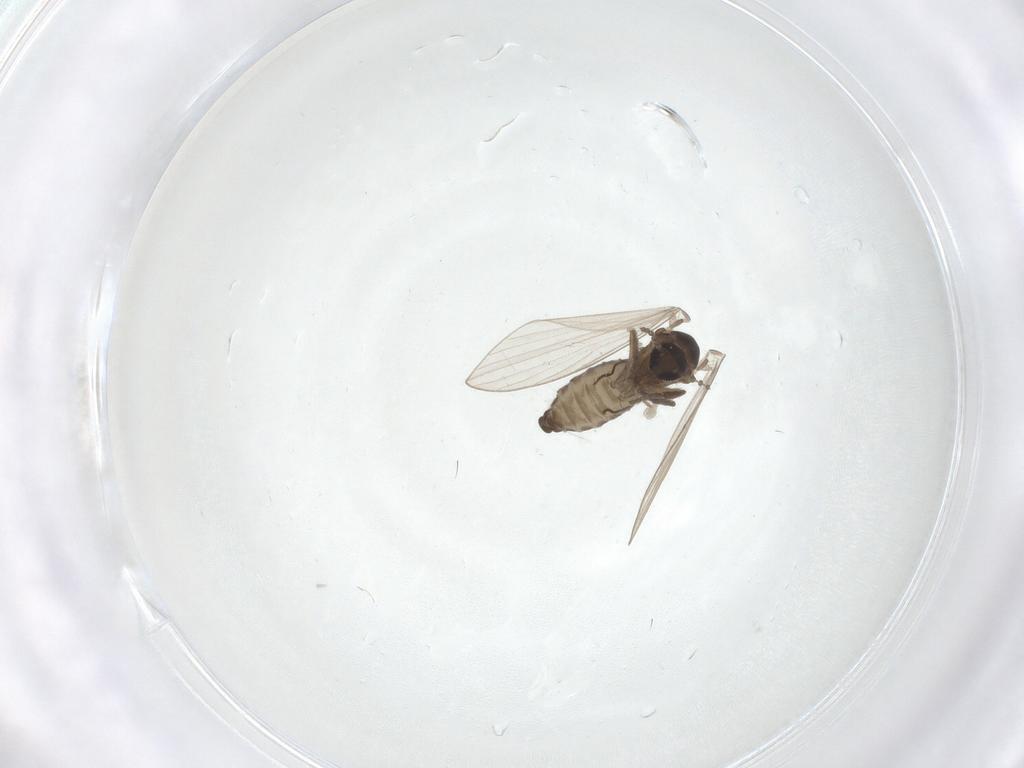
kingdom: Animalia
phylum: Arthropoda
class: Insecta
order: Diptera
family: Psychodidae
